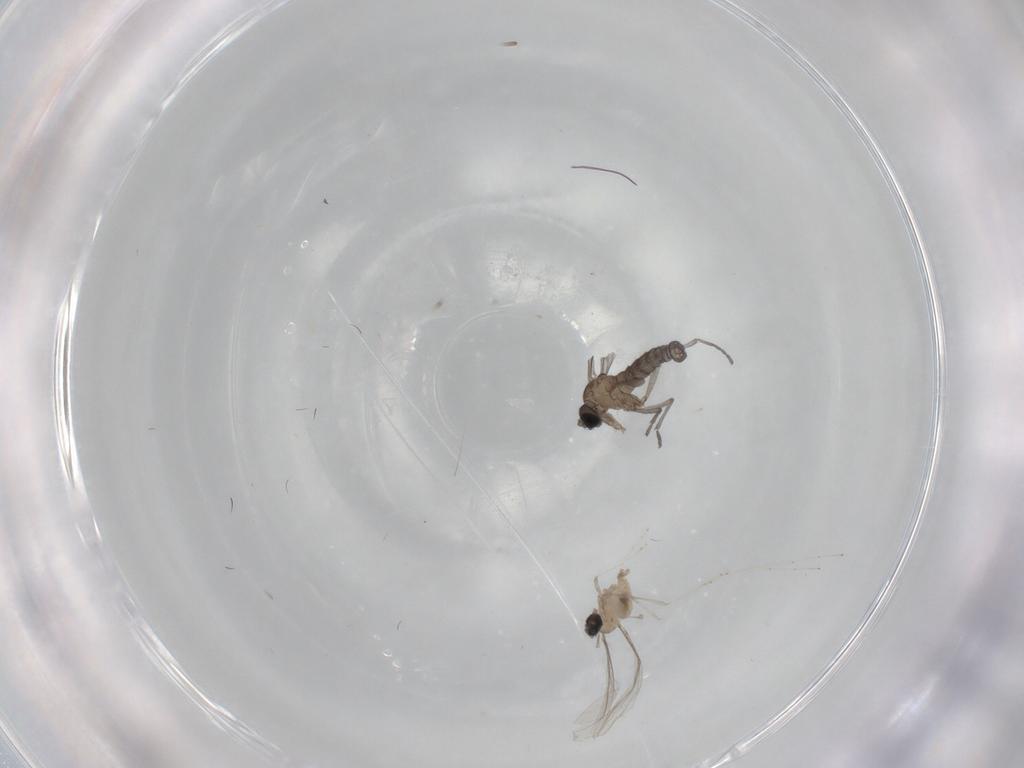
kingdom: Animalia
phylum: Arthropoda
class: Insecta
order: Diptera
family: Sciaridae
